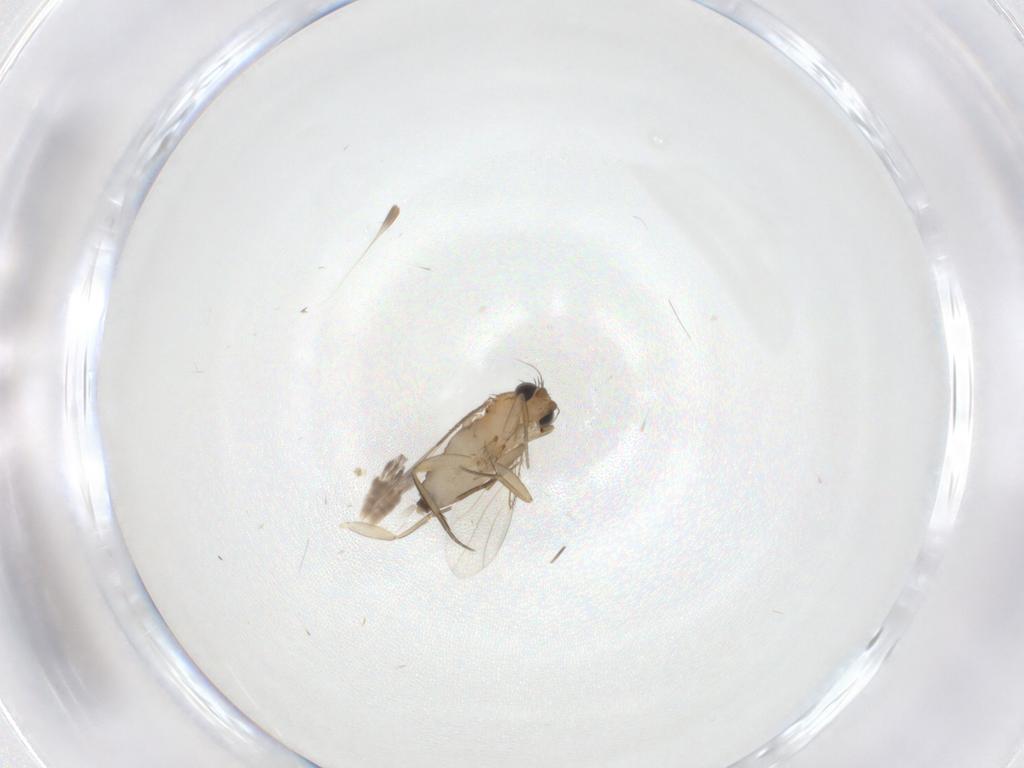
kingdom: Animalia
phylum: Arthropoda
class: Insecta
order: Diptera
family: Phoridae
